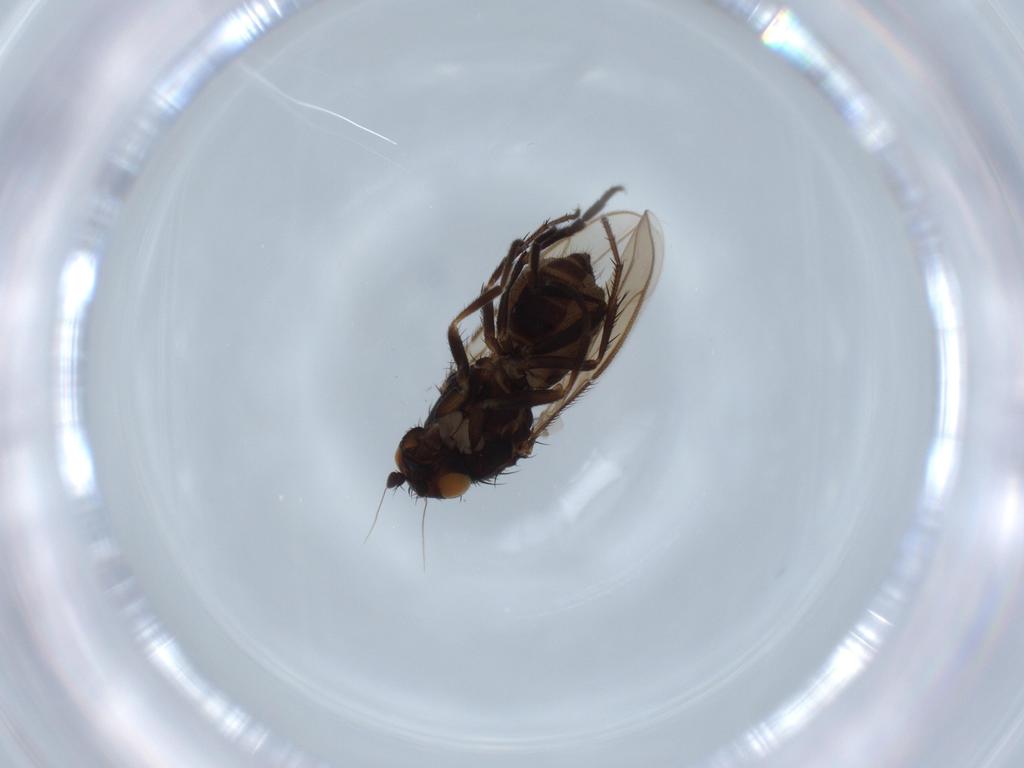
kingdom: Animalia
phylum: Arthropoda
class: Insecta
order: Diptera
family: Sphaeroceridae
